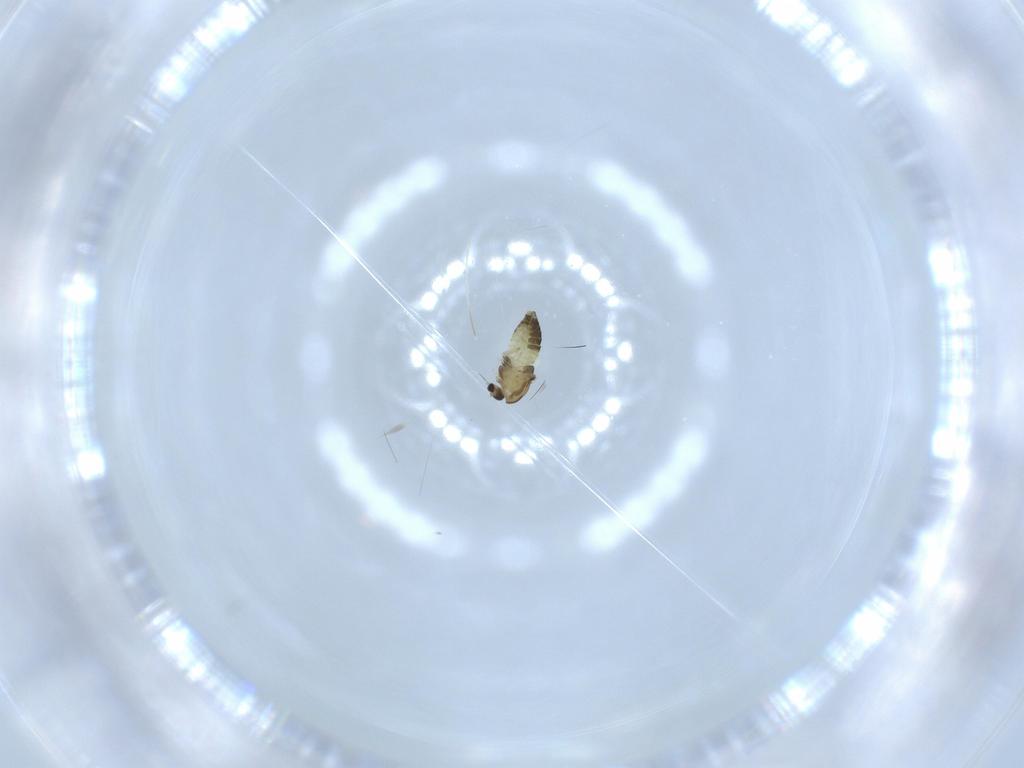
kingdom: Animalia
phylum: Arthropoda
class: Insecta
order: Diptera
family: Chironomidae
